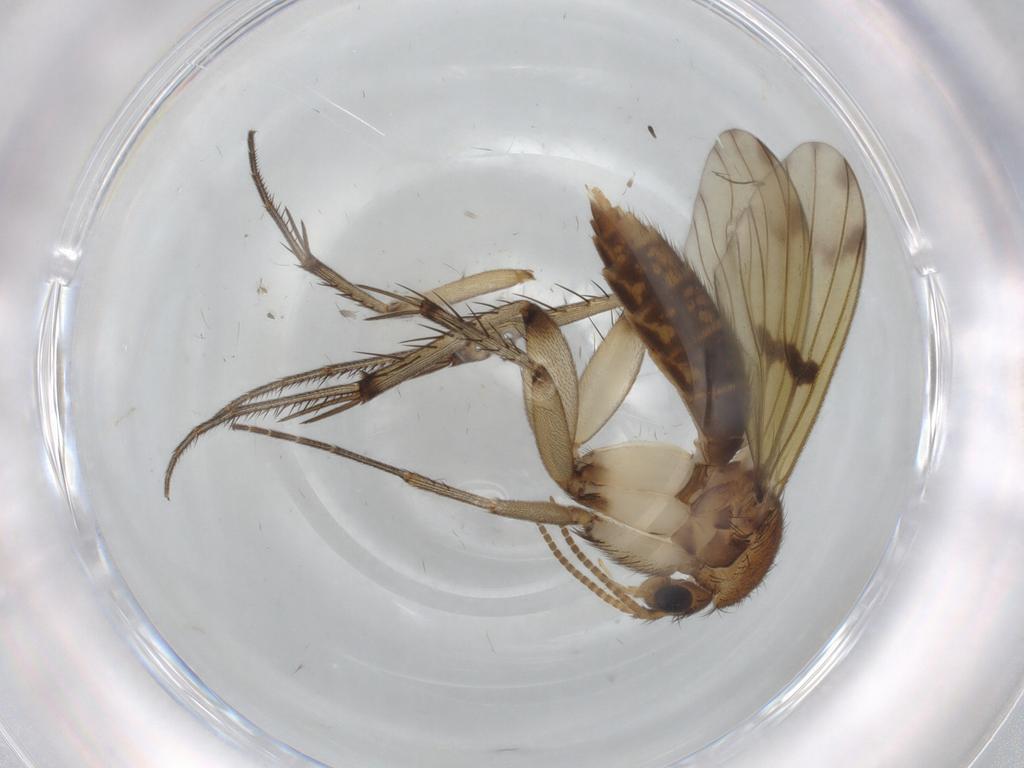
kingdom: Animalia
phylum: Arthropoda
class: Insecta
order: Diptera
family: Mycetophilidae
